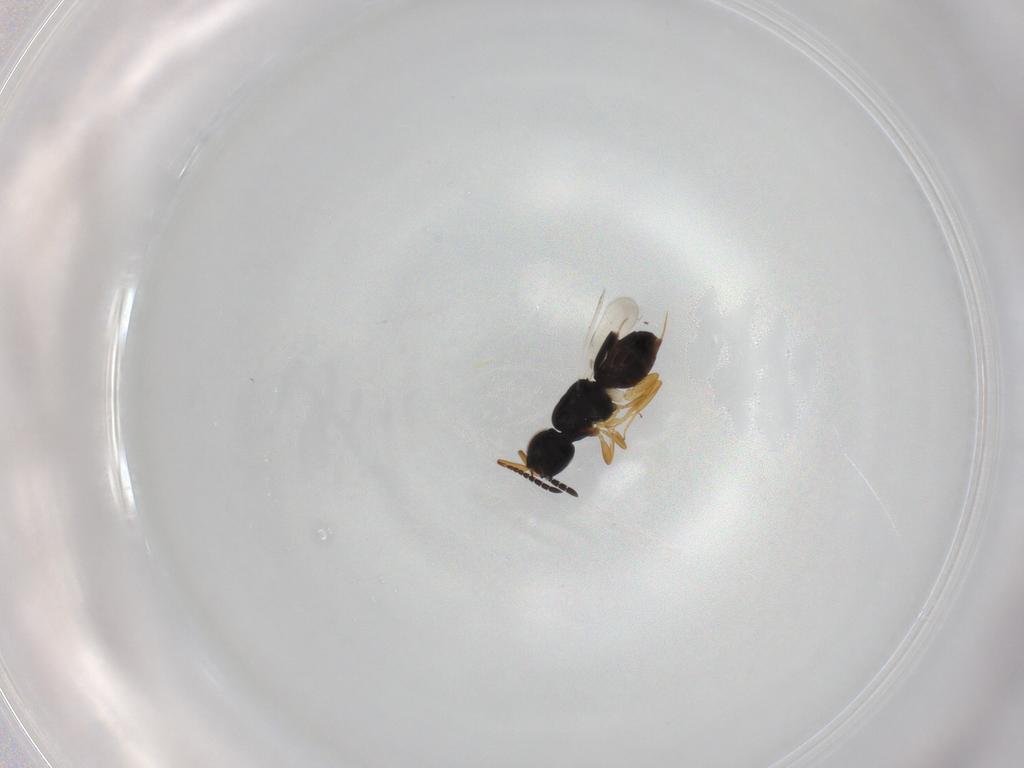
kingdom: Animalia
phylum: Arthropoda
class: Insecta
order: Hymenoptera
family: Ceraphronidae
